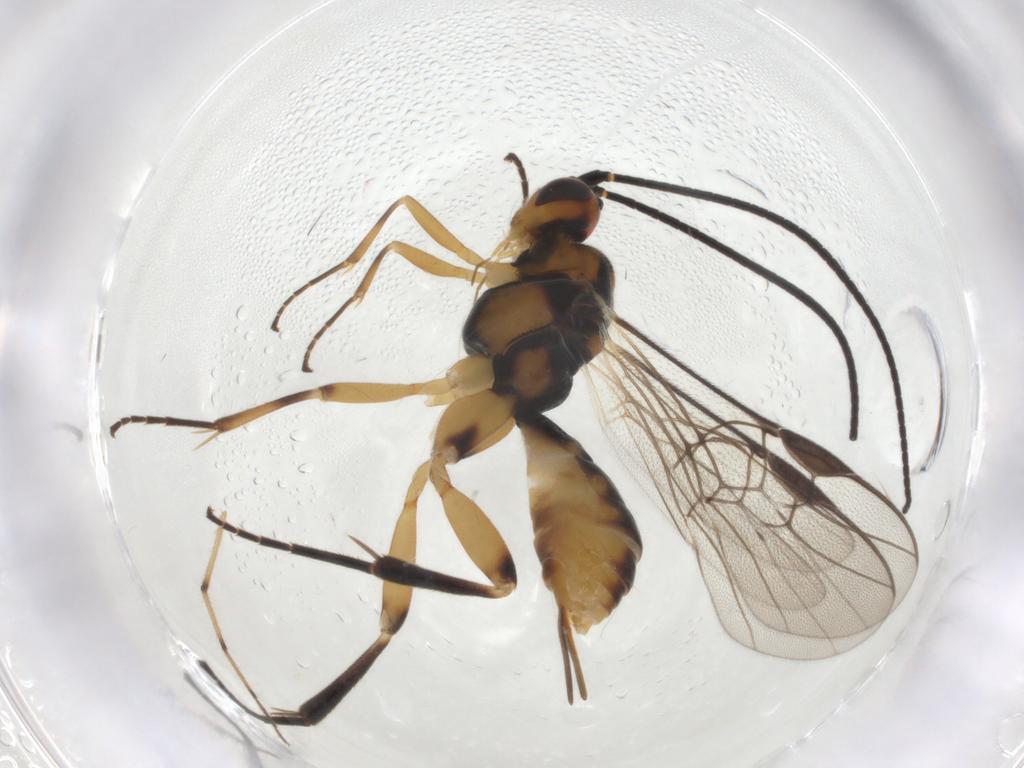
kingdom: Animalia
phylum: Arthropoda
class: Insecta
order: Hymenoptera
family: Braconidae
